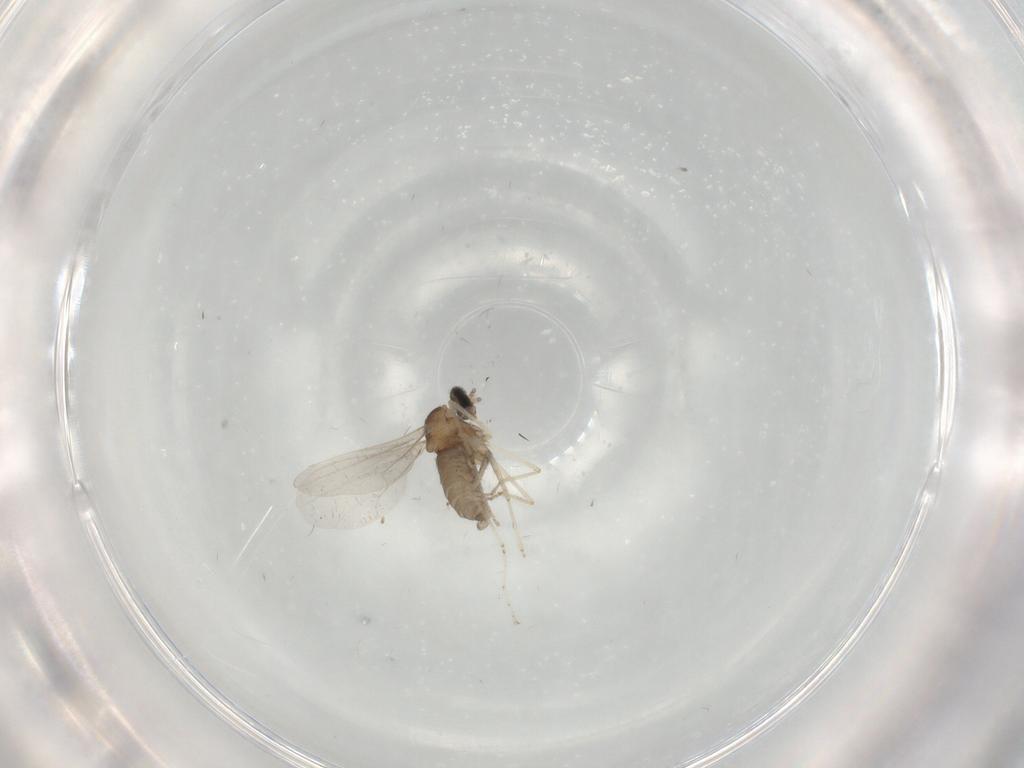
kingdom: Animalia
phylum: Arthropoda
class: Insecta
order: Diptera
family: Cecidomyiidae
